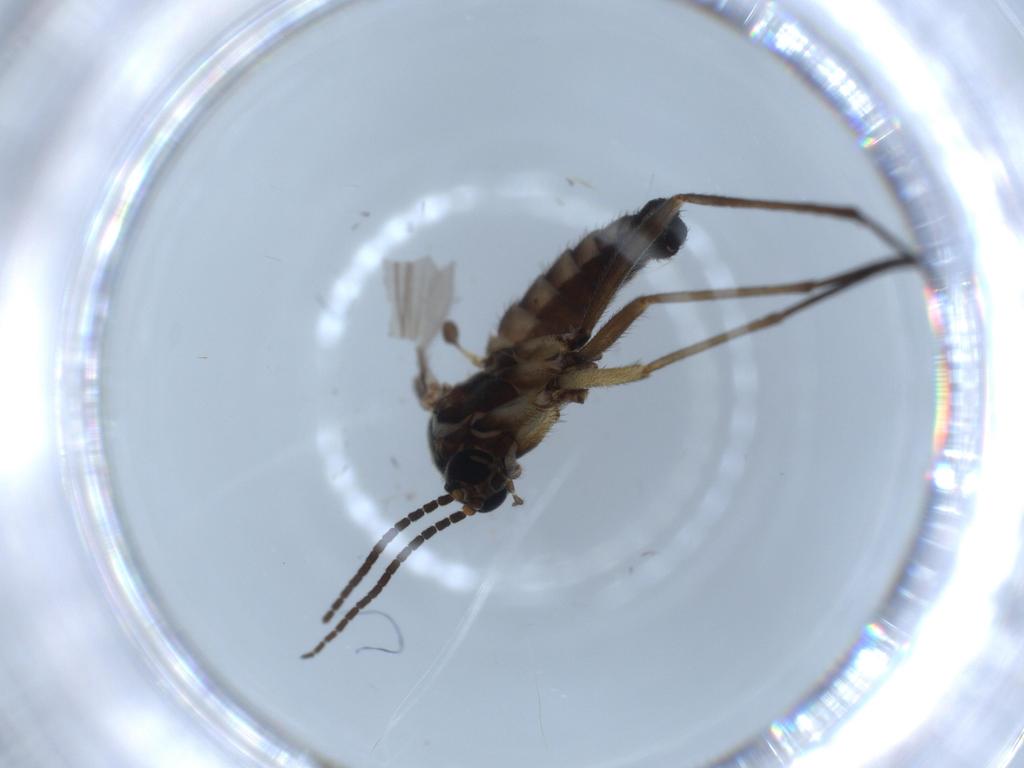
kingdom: Animalia
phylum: Arthropoda
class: Insecta
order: Diptera
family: Sciaridae
